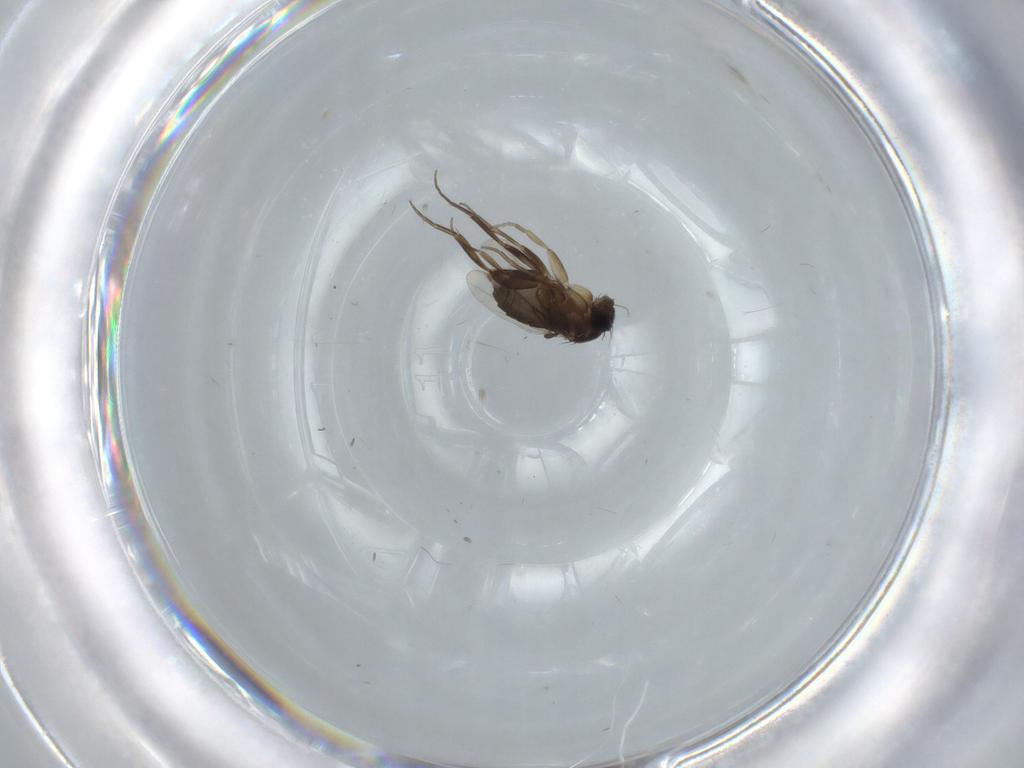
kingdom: Animalia
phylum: Arthropoda
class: Insecta
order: Diptera
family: Phoridae
